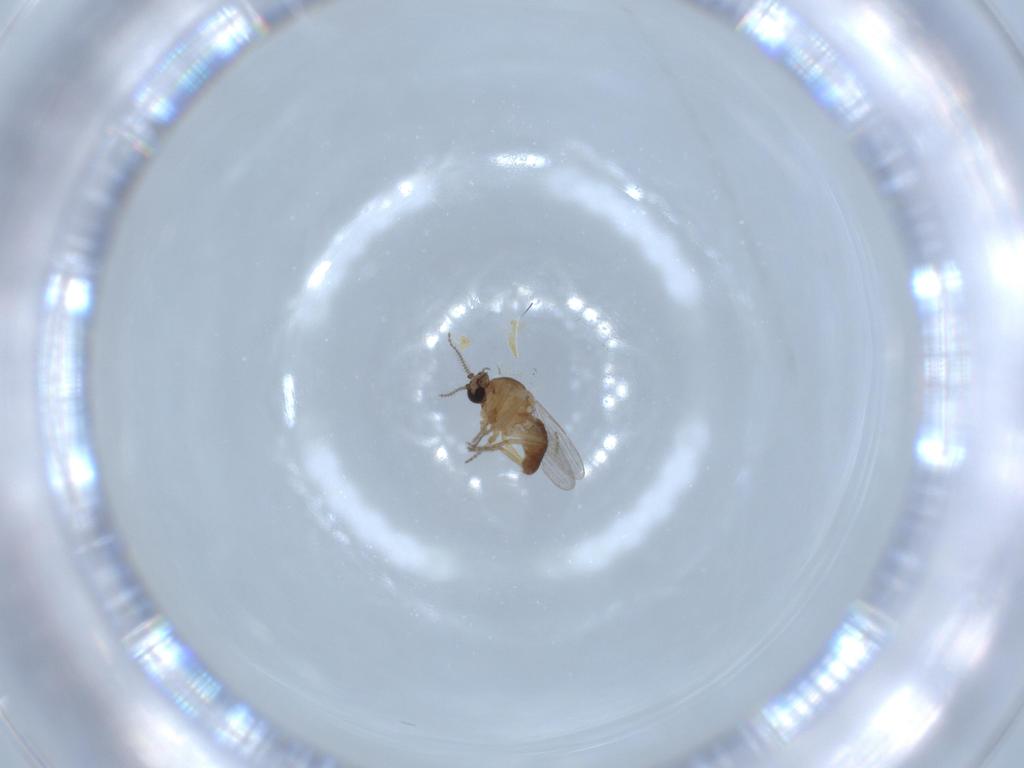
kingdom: Animalia
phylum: Arthropoda
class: Insecta
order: Diptera
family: Ceratopogonidae
